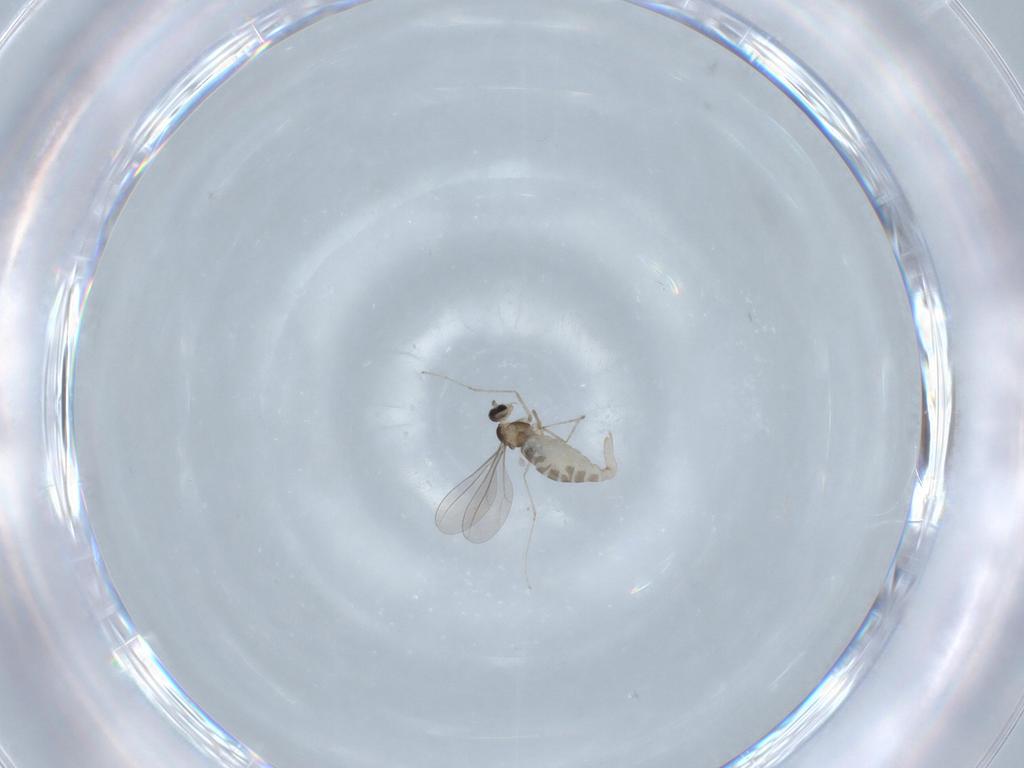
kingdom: Animalia
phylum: Arthropoda
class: Insecta
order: Diptera
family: Cecidomyiidae
